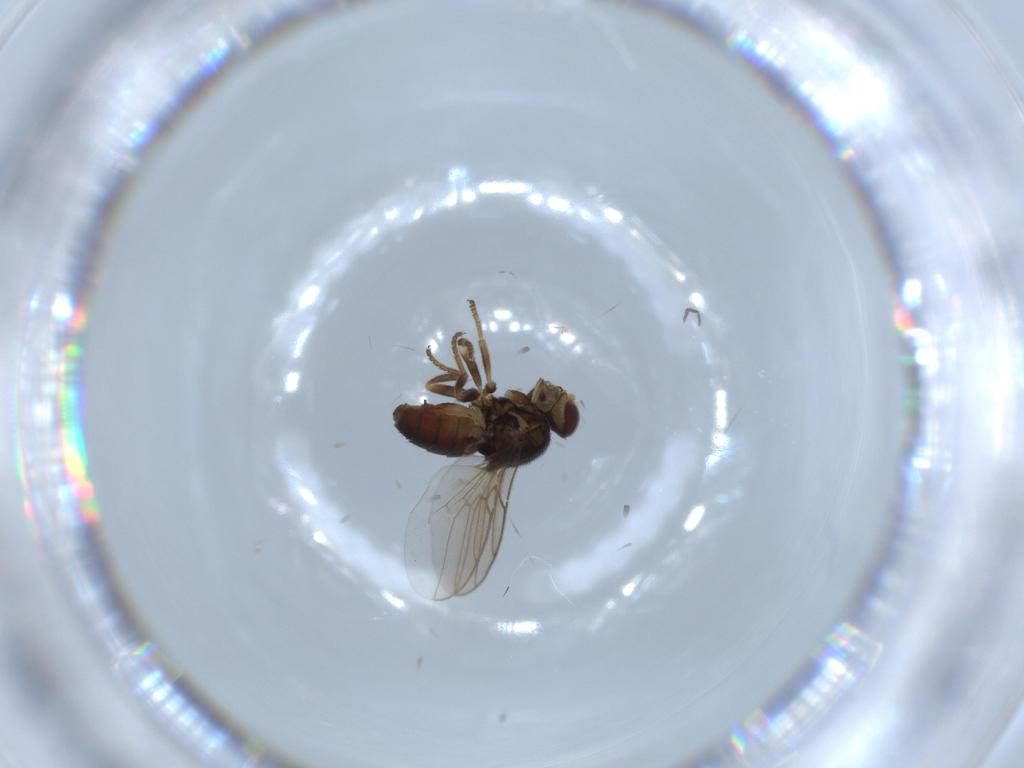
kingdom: Animalia
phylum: Arthropoda
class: Insecta
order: Diptera
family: Chloropidae
